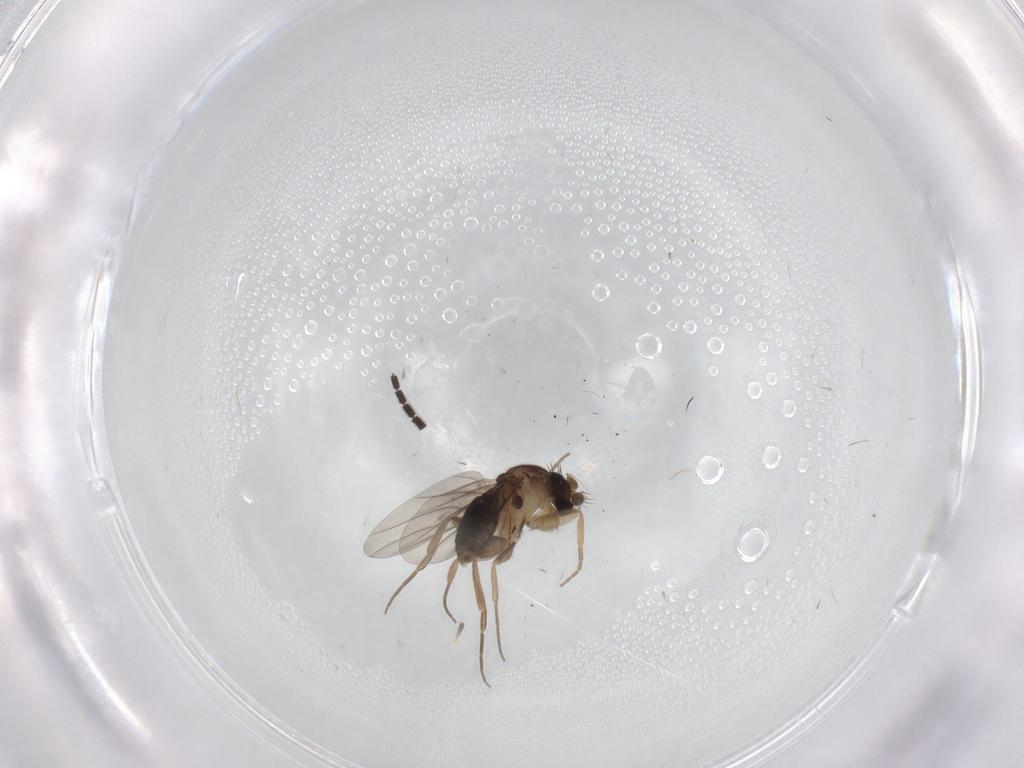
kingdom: Animalia
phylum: Arthropoda
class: Insecta
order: Diptera
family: Phoridae
